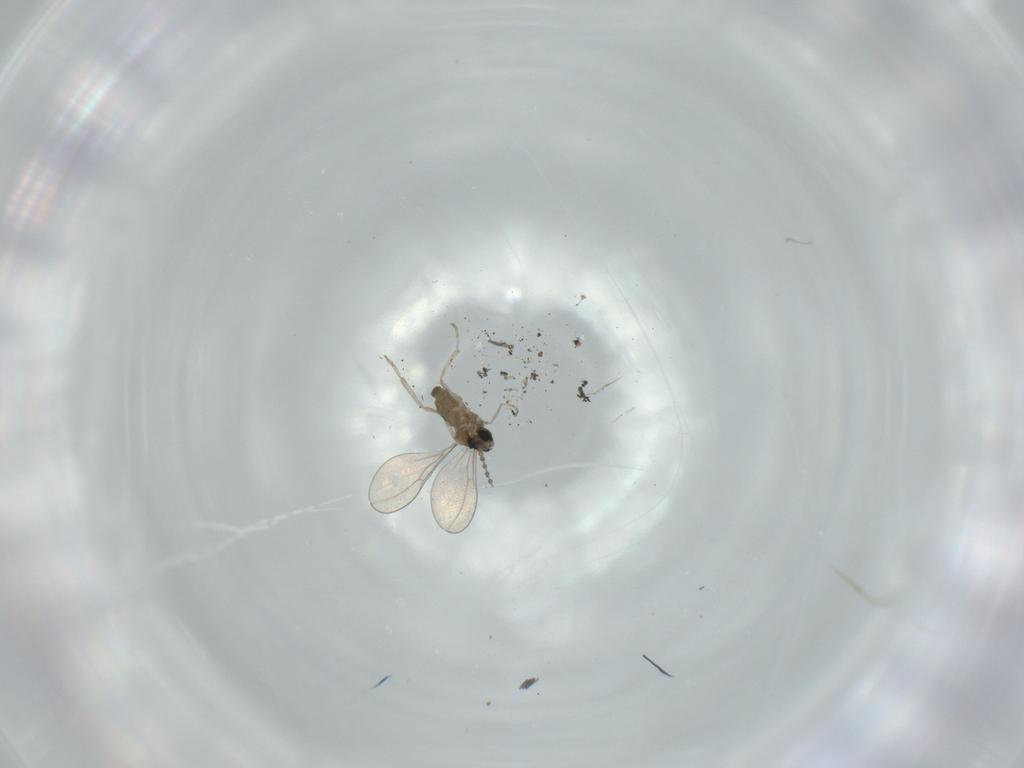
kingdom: Animalia
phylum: Arthropoda
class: Insecta
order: Diptera
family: Cecidomyiidae
